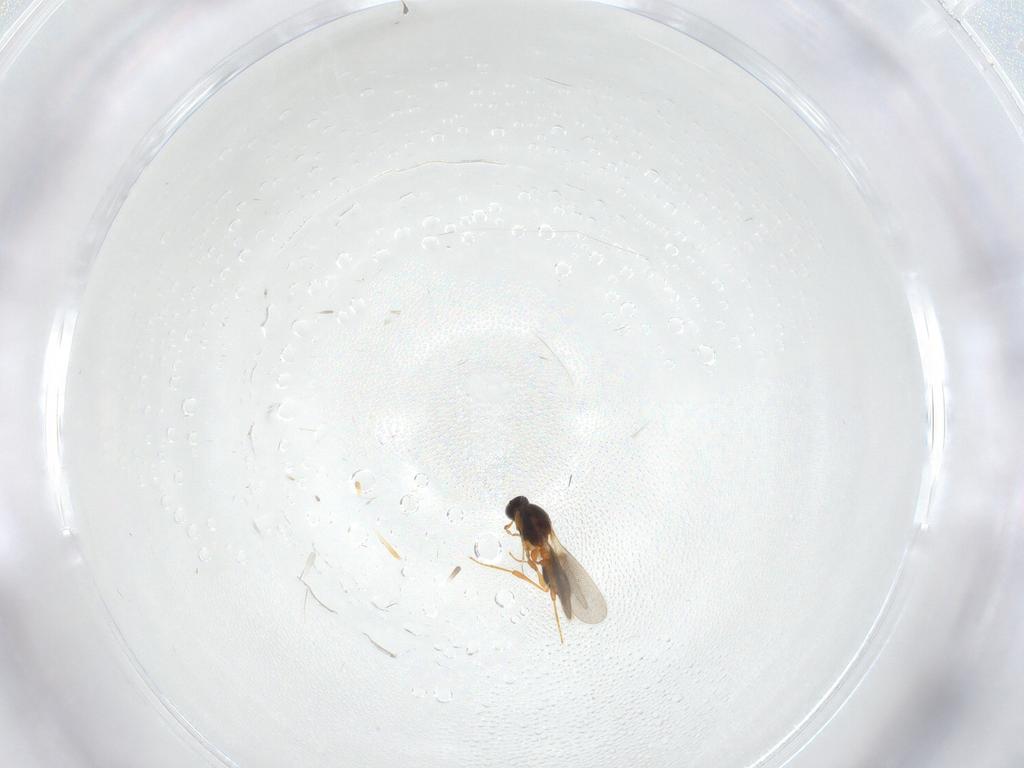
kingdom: Animalia
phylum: Arthropoda
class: Insecta
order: Hymenoptera
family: Platygastridae
